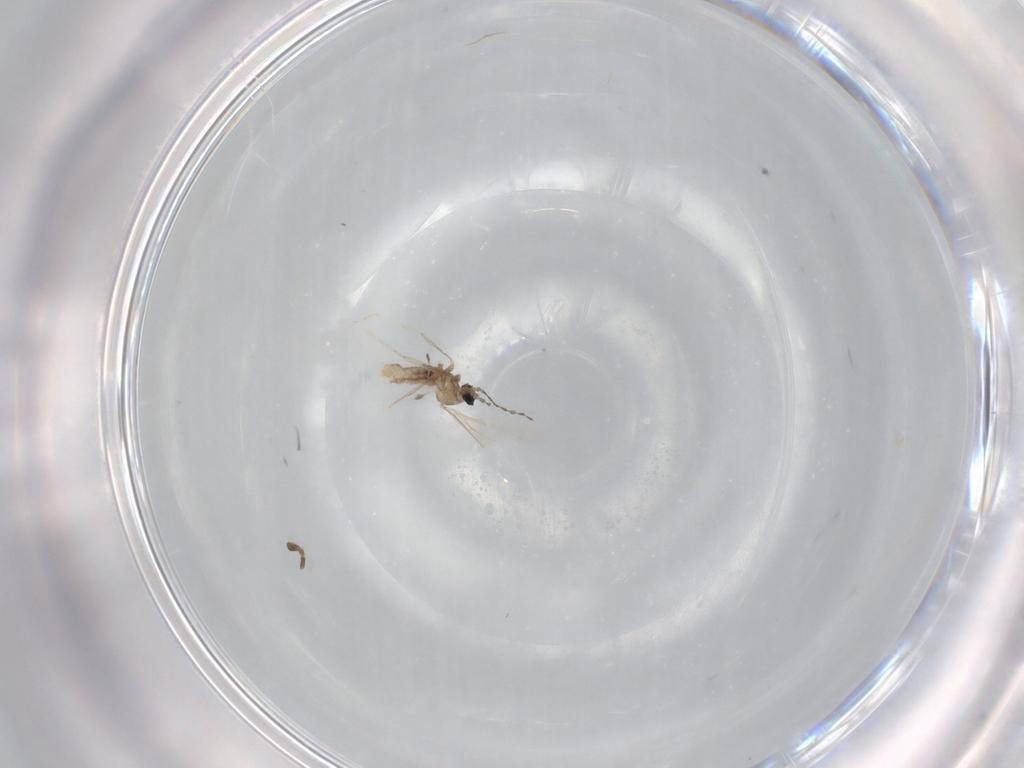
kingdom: Animalia
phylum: Arthropoda
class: Insecta
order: Diptera
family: Cecidomyiidae
